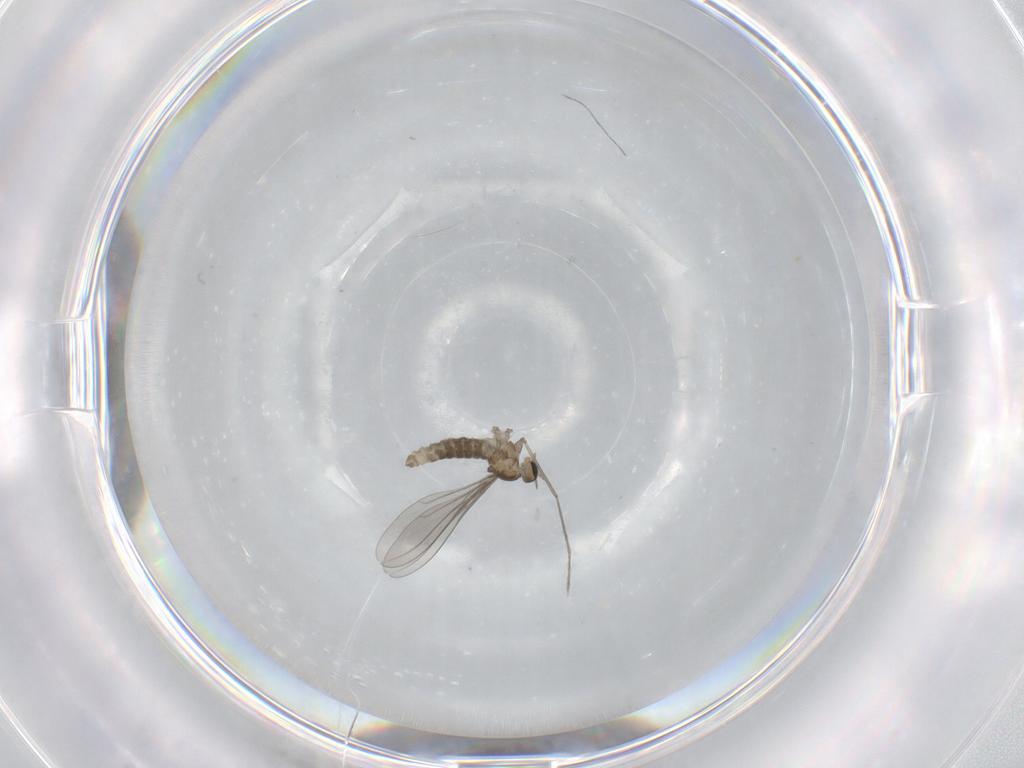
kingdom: Animalia
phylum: Arthropoda
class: Insecta
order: Diptera
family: Cecidomyiidae
